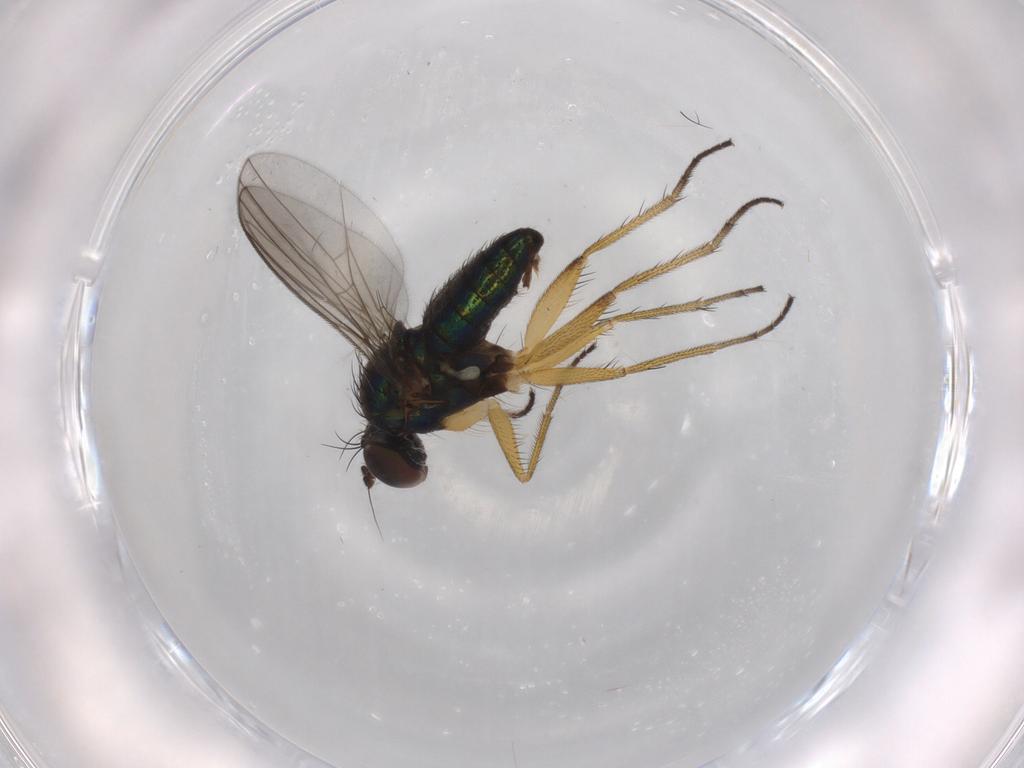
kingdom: Animalia
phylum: Arthropoda
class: Insecta
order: Diptera
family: Dolichopodidae
